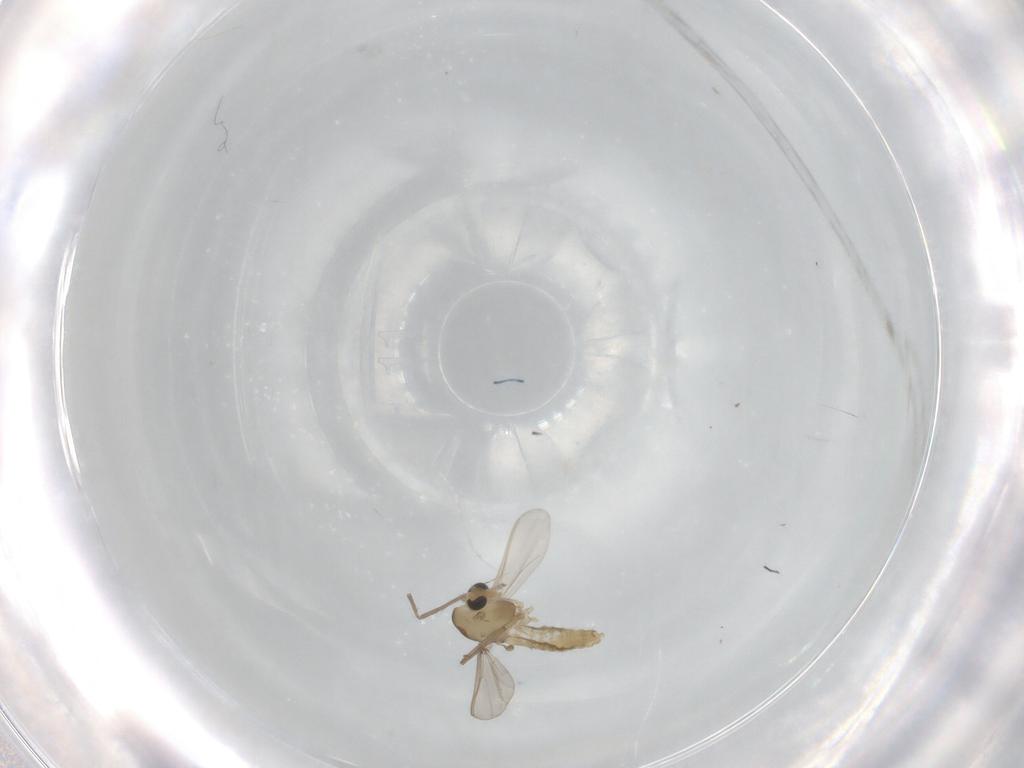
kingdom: Animalia
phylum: Arthropoda
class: Insecta
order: Diptera
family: Chironomidae
